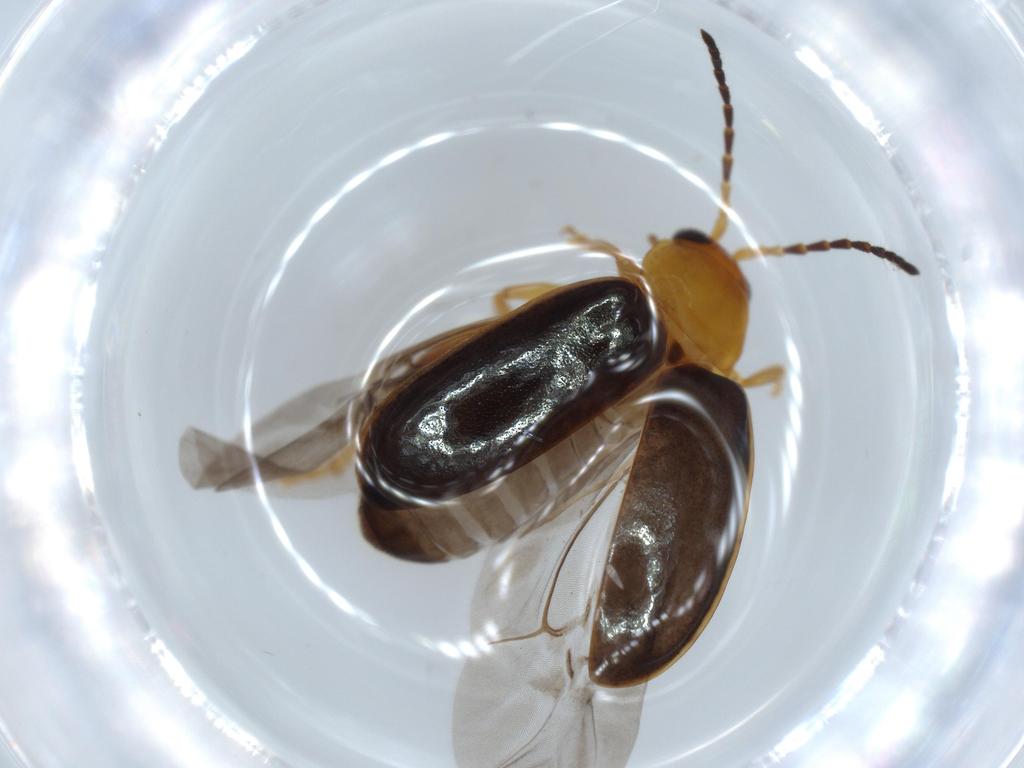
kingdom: Animalia
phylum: Arthropoda
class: Insecta
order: Coleoptera
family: Chrysomelidae
